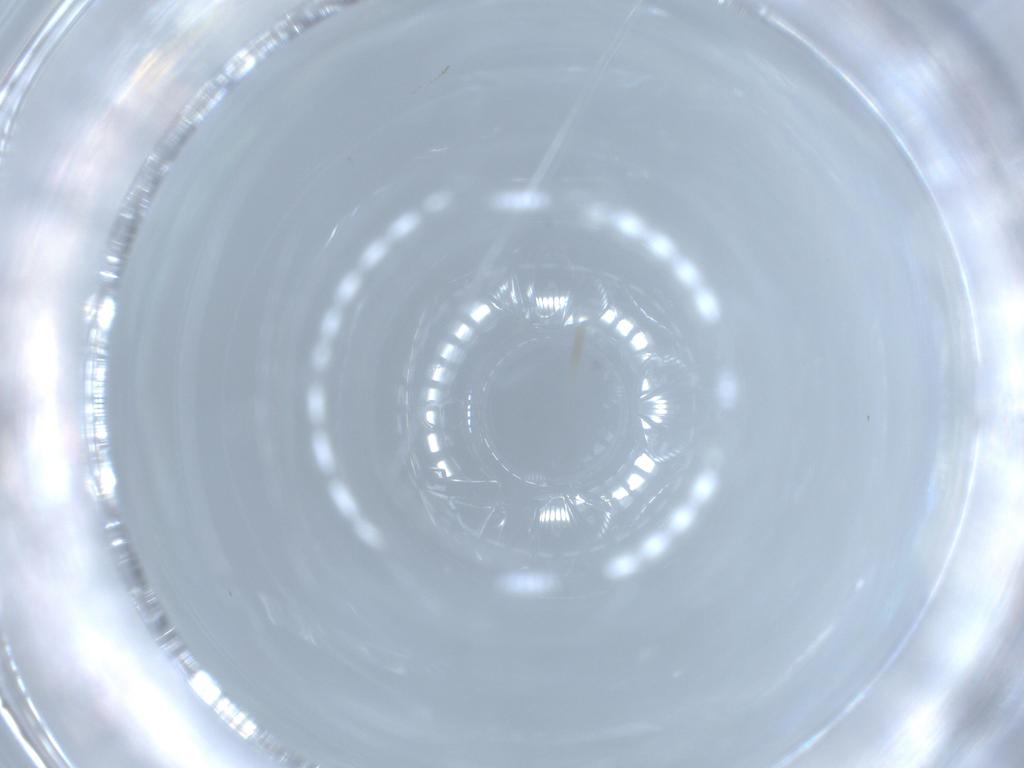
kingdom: Animalia
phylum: Arthropoda
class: Insecta
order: Diptera
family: Chironomidae
